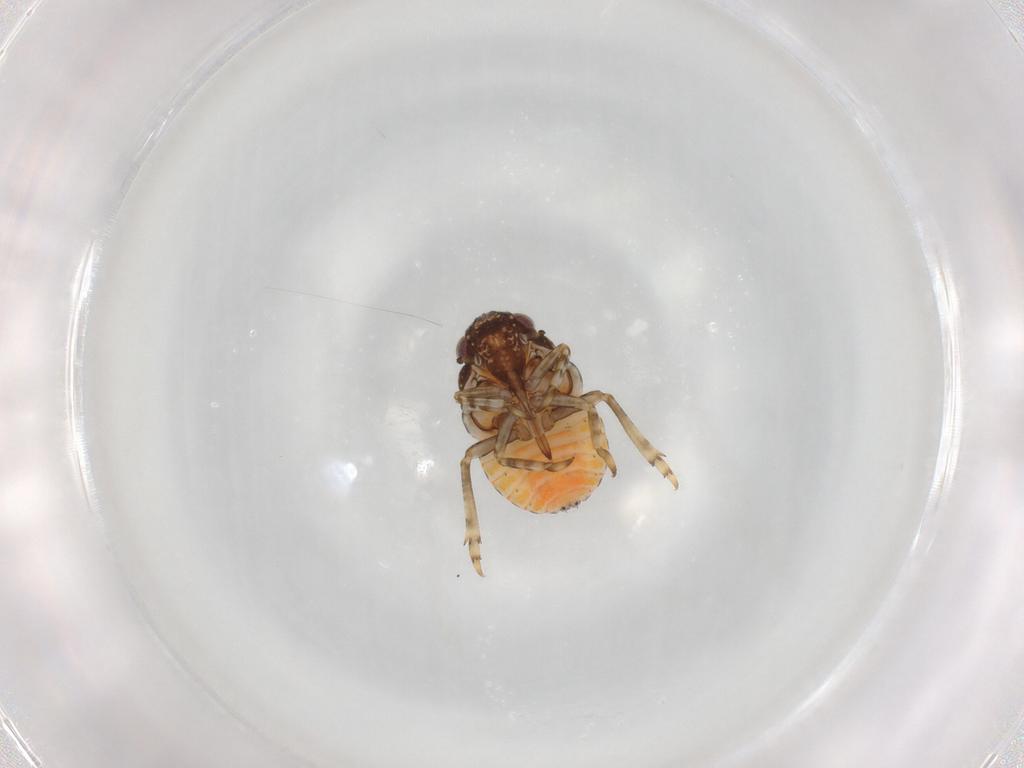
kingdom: Animalia
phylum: Arthropoda
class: Insecta
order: Hemiptera
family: Nogodinidae
